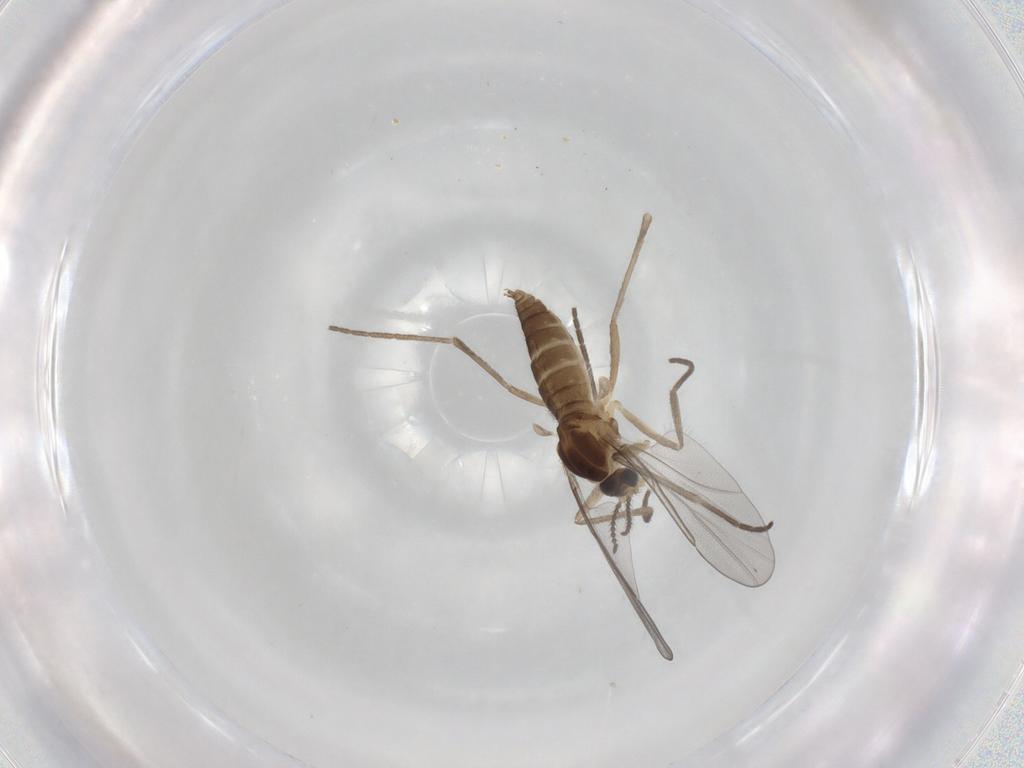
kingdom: Animalia
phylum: Arthropoda
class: Insecta
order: Diptera
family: Cecidomyiidae
